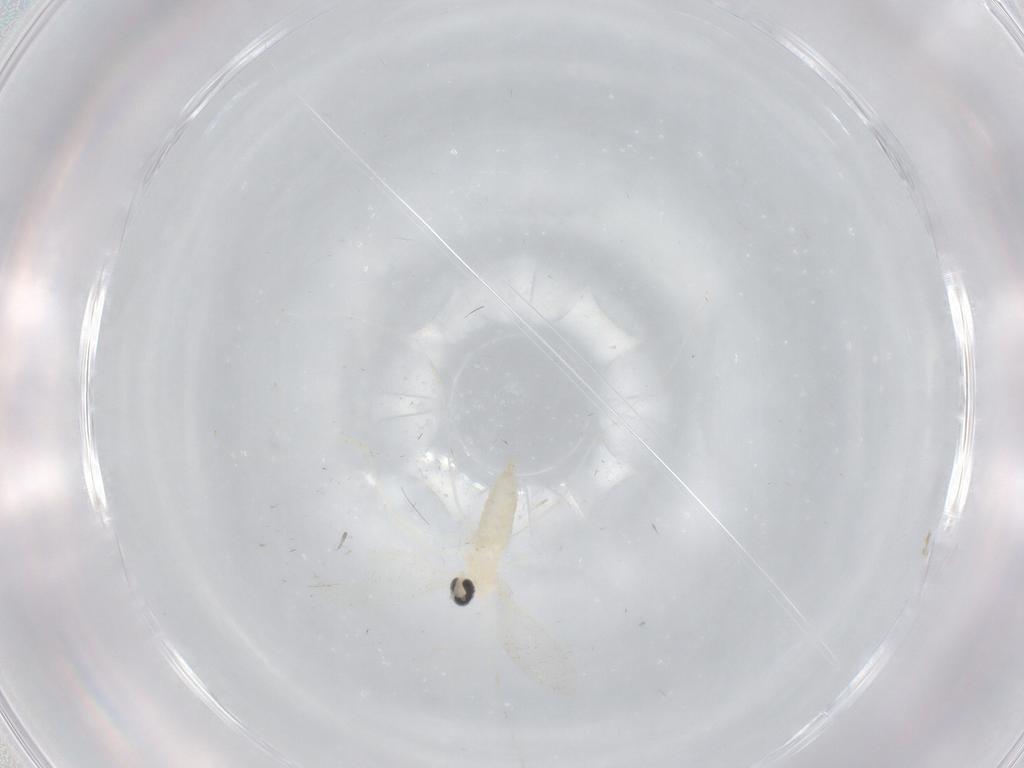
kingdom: Animalia
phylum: Arthropoda
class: Insecta
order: Diptera
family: Cecidomyiidae
